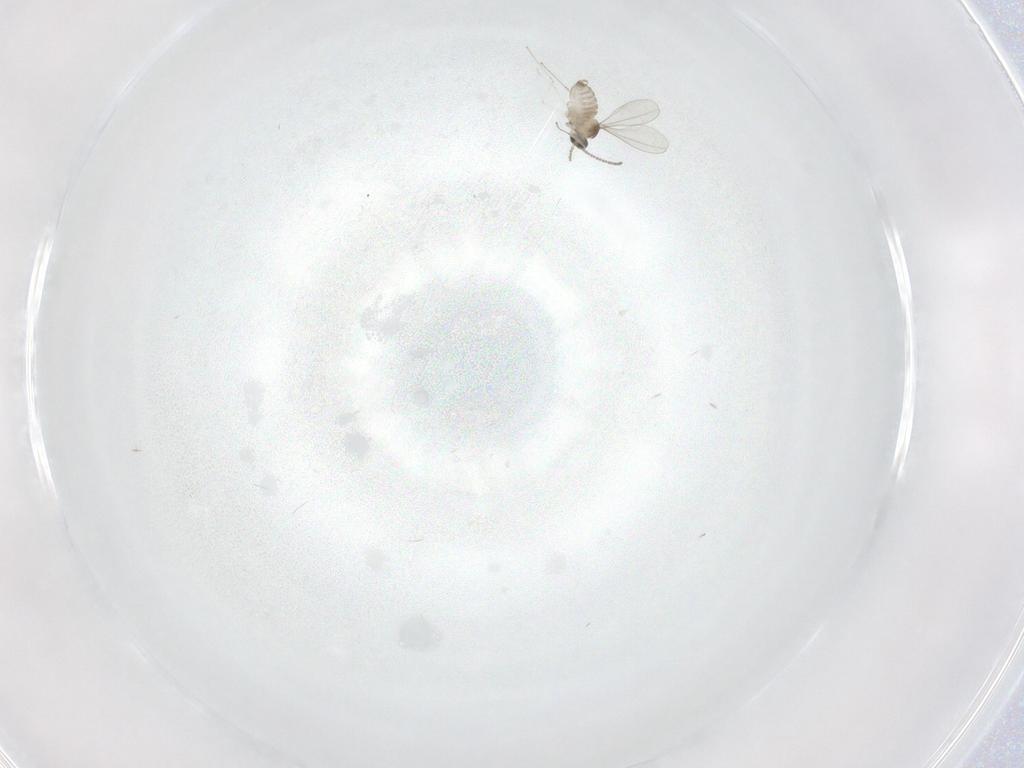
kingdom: Animalia
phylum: Arthropoda
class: Insecta
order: Diptera
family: Cecidomyiidae
